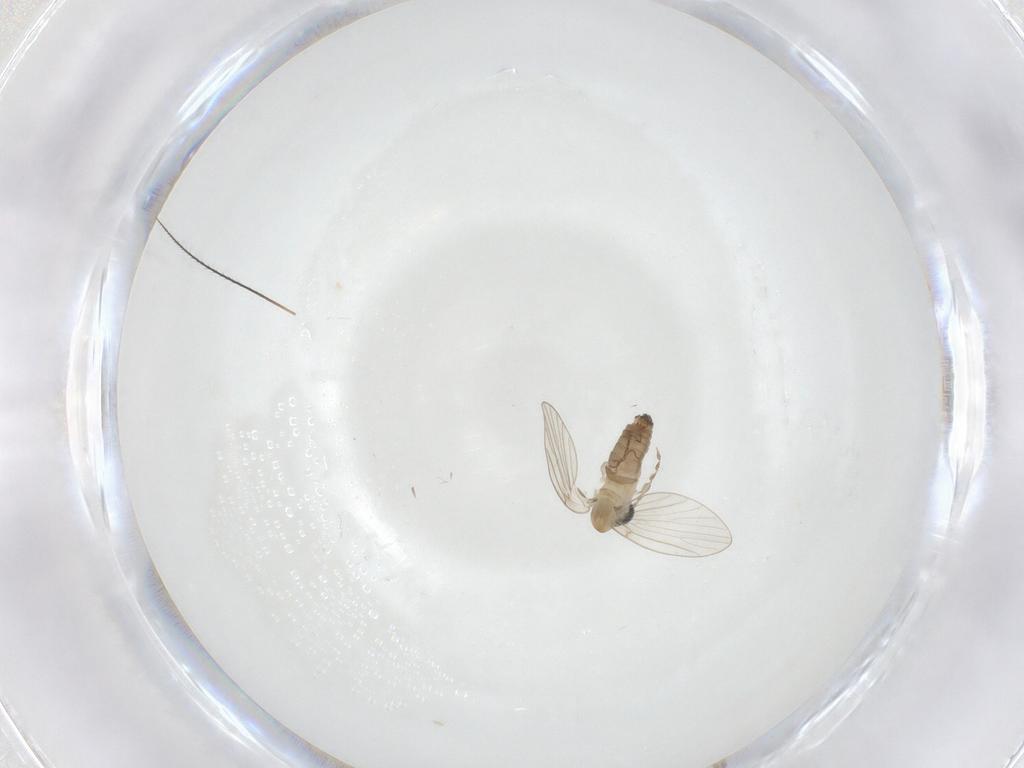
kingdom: Animalia
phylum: Arthropoda
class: Insecta
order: Diptera
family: Psychodidae
